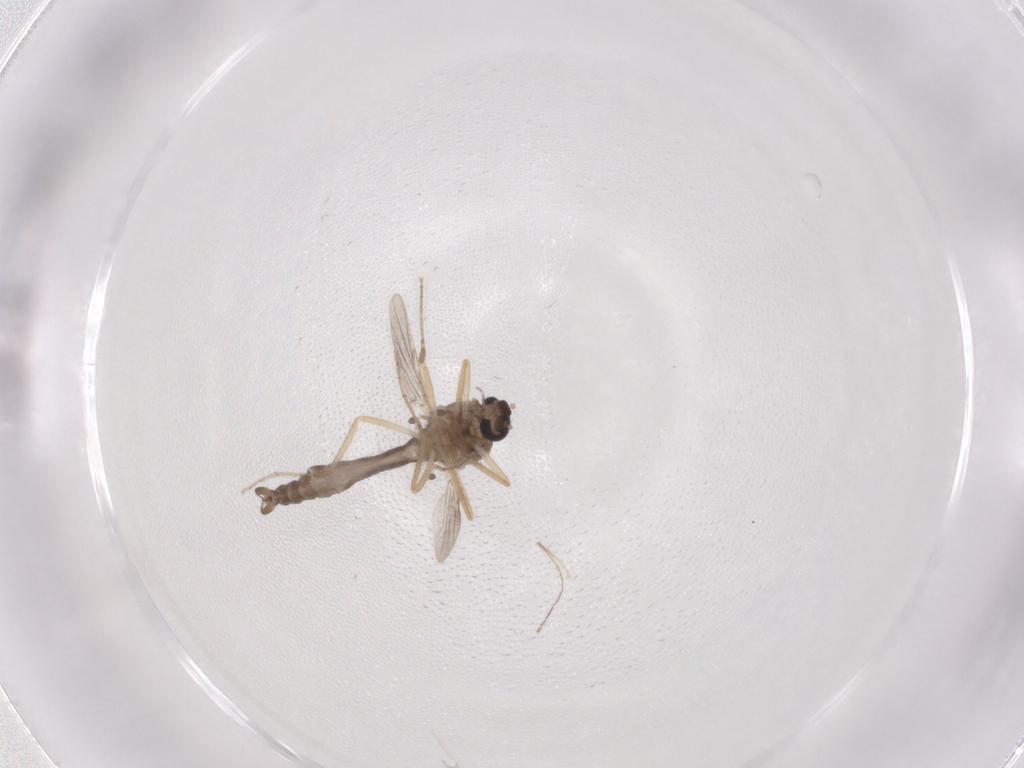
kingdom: Animalia
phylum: Arthropoda
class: Insecta
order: Diptera
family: Ceratopogonidae
